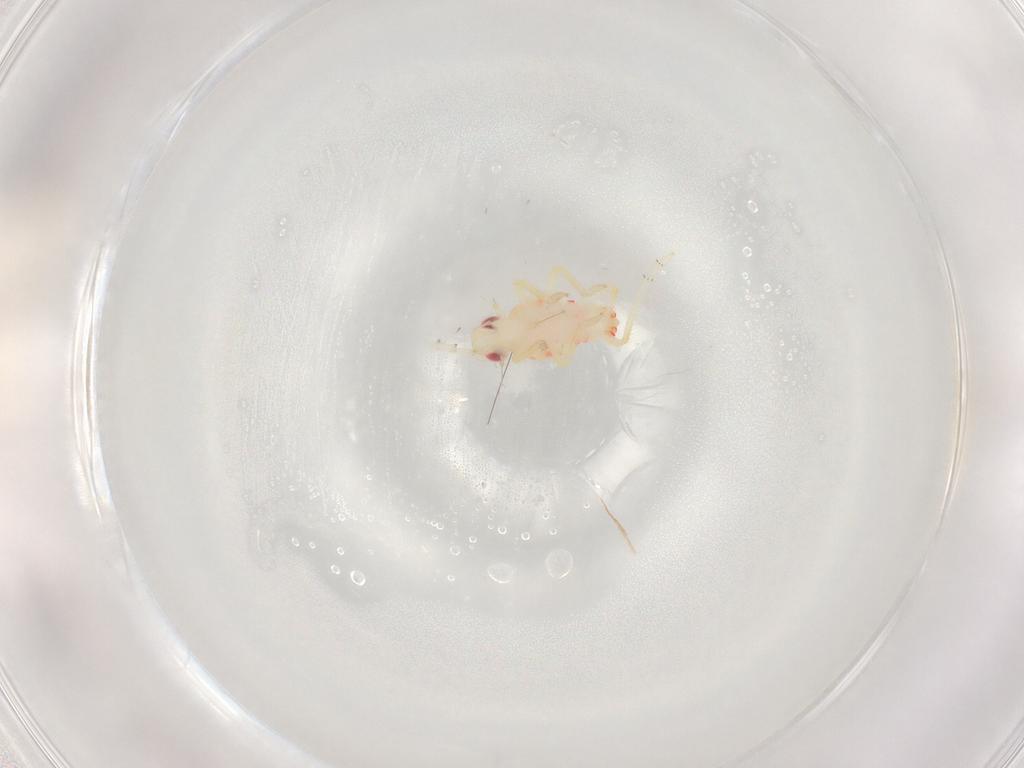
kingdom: Animalia
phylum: Arthropoda
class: Insecta
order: Hemiptera
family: Tropiduchidae
